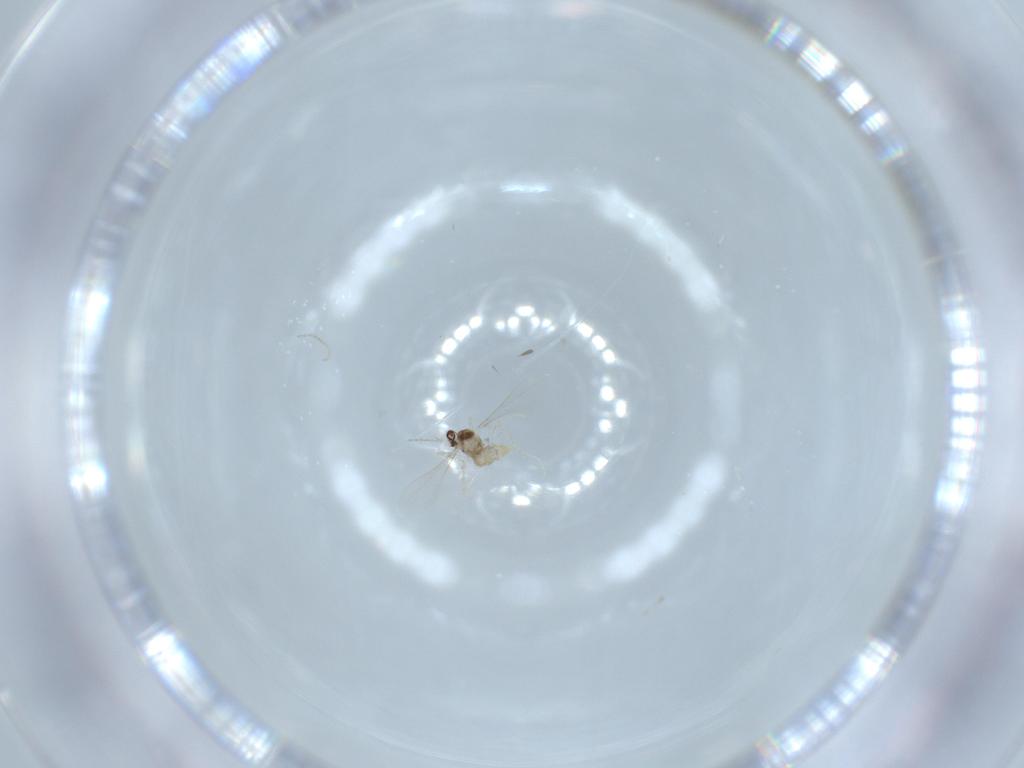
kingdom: Animalia
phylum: Arthropoda
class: Insecta
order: Diptera
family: Cecidomyiidae
